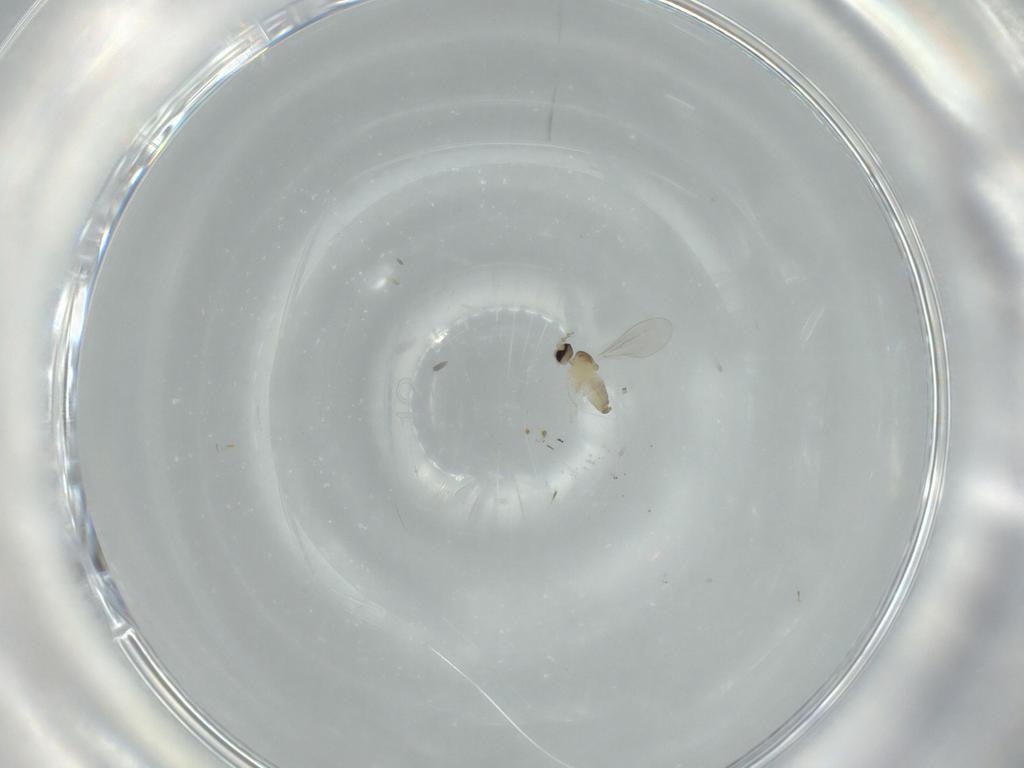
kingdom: Animalia
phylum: Arthropoda
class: Insecta
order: Diptera
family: Cecidomyiidae
